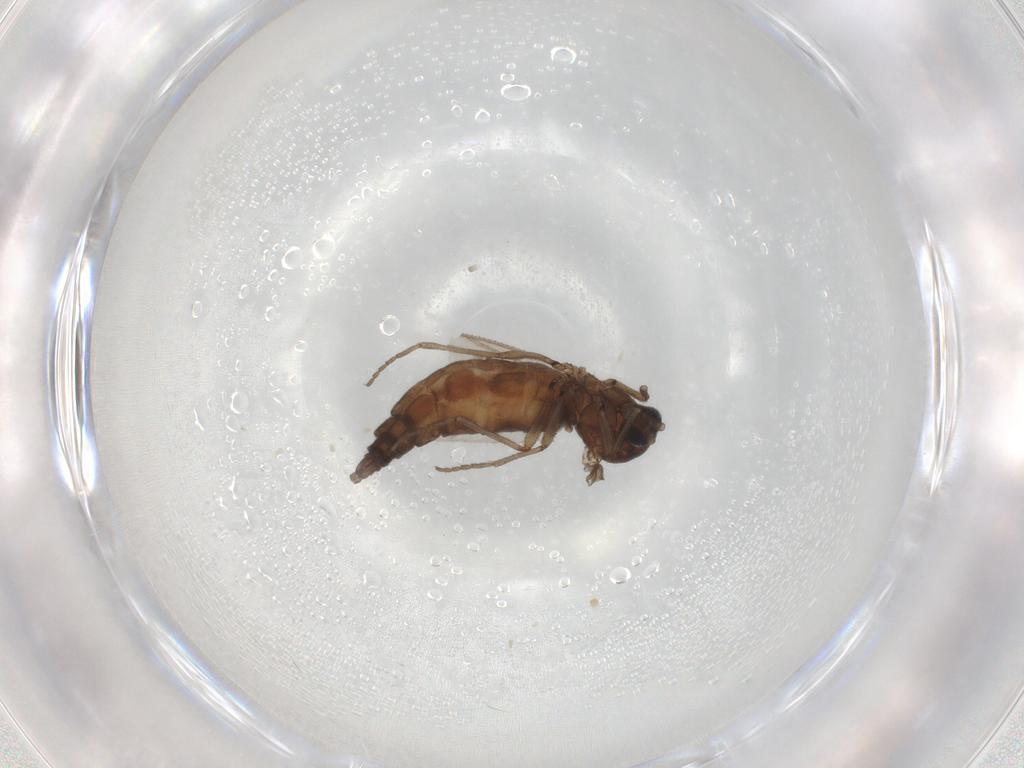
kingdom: Animalia
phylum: Arthropoda
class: Insecta
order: Diptera
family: Sciaridae
